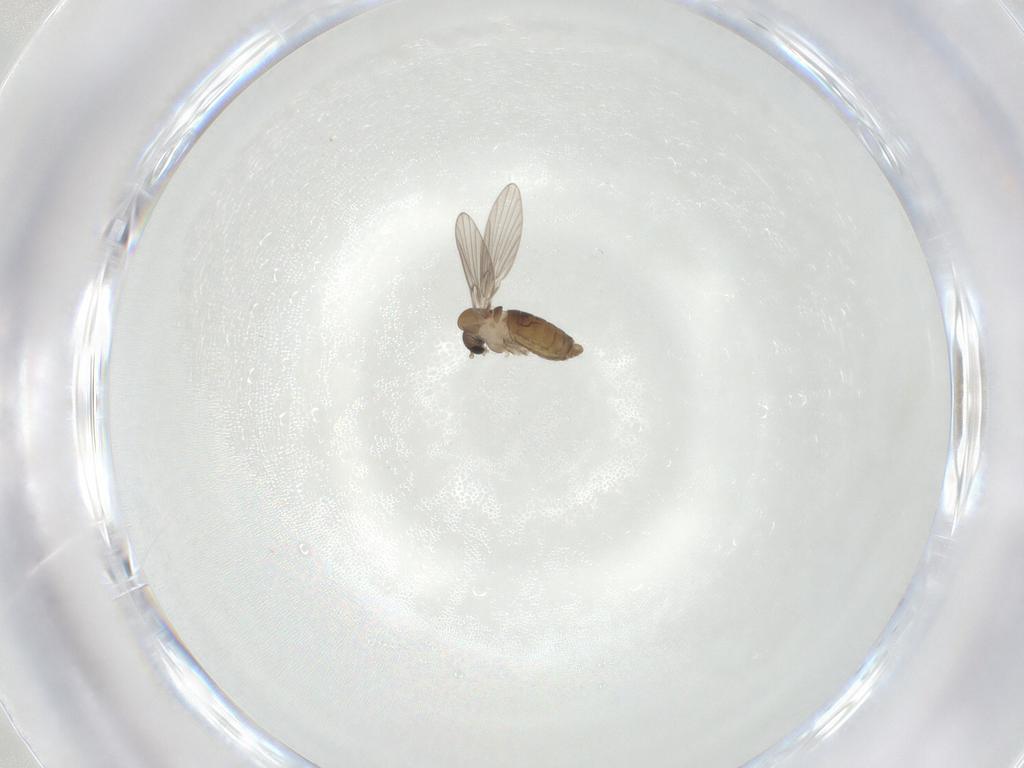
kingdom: Animalia
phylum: Arthropoda
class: Insecta
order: Diptera
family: Psychodidae
